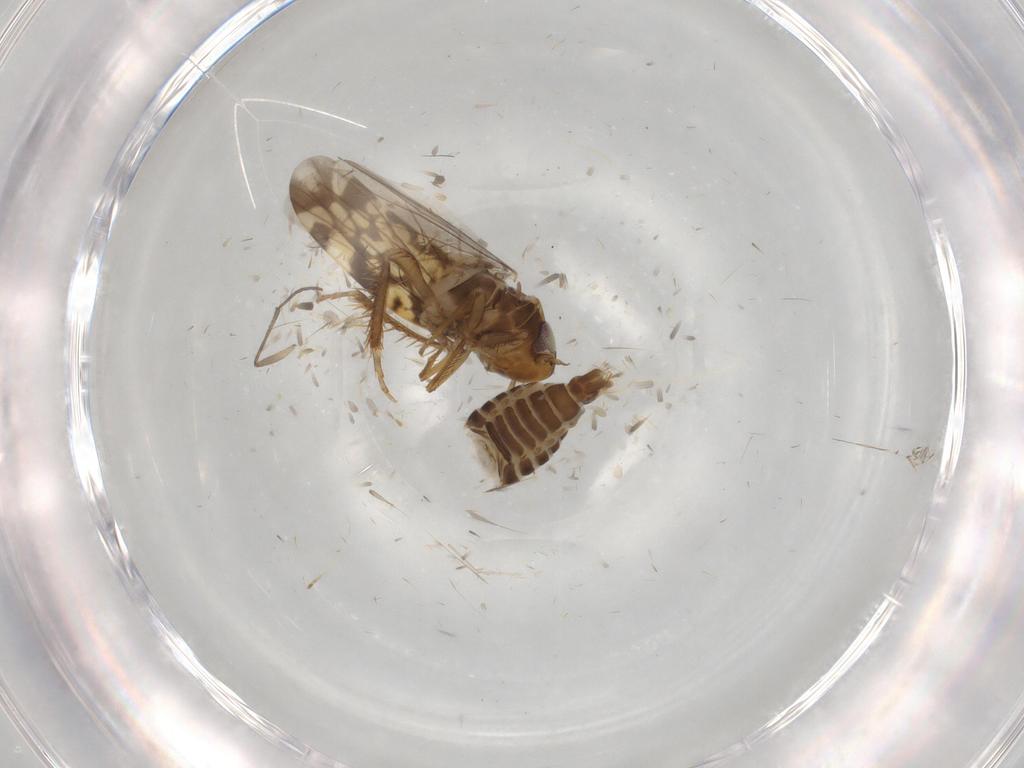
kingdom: Animalia
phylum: Arthropoda
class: Insecta
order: Hemiptera
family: Cicadellidae
